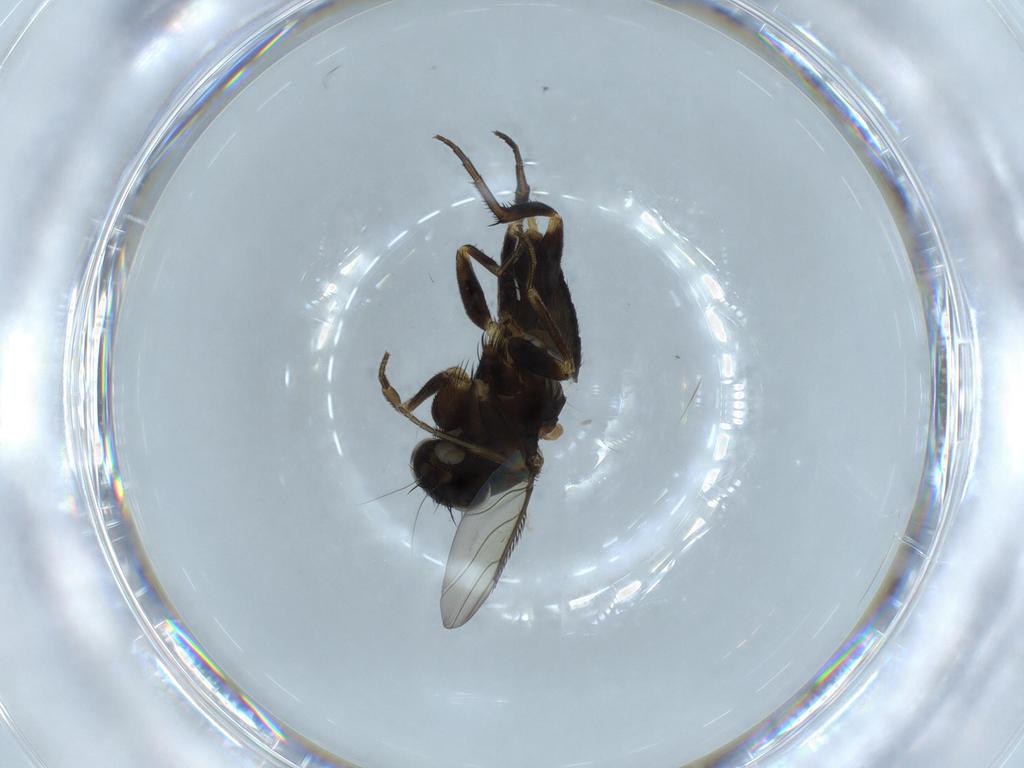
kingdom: Animalia
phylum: Arthropoda
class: Insecta
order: Diptera
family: Phoridae
